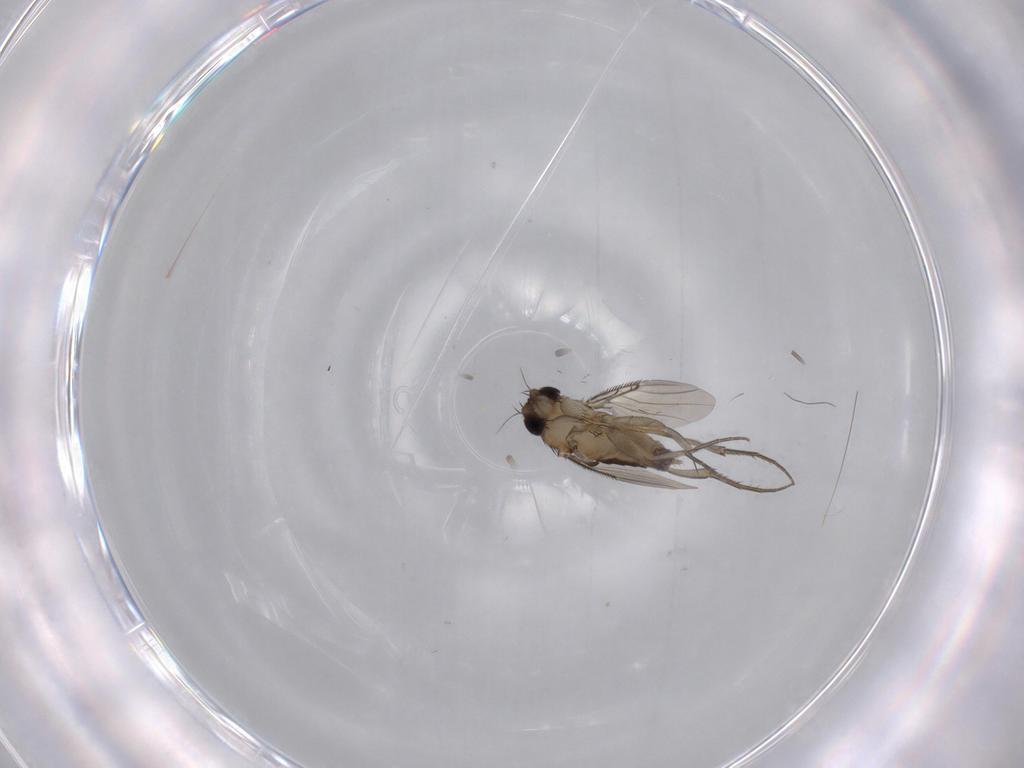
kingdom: Animalia
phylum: Arthropoda
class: Insecta
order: Diptera
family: Phoridae
